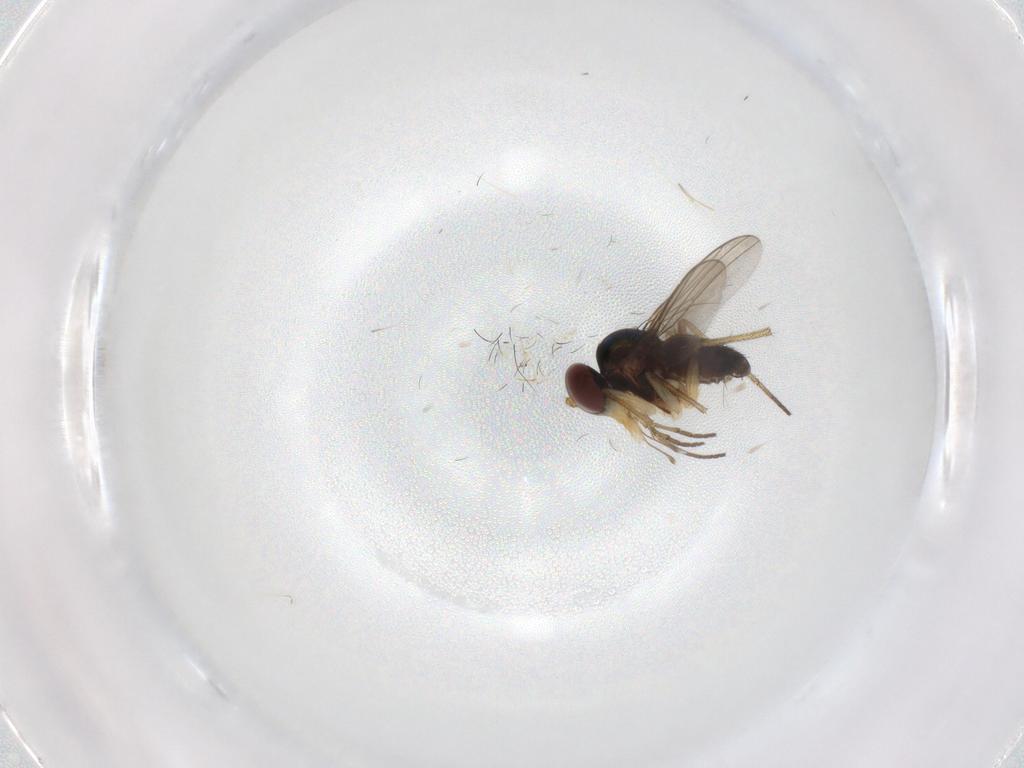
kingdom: Animalia
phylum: Arthropoda
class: Insecta
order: Diptera
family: Dolichopodidae
